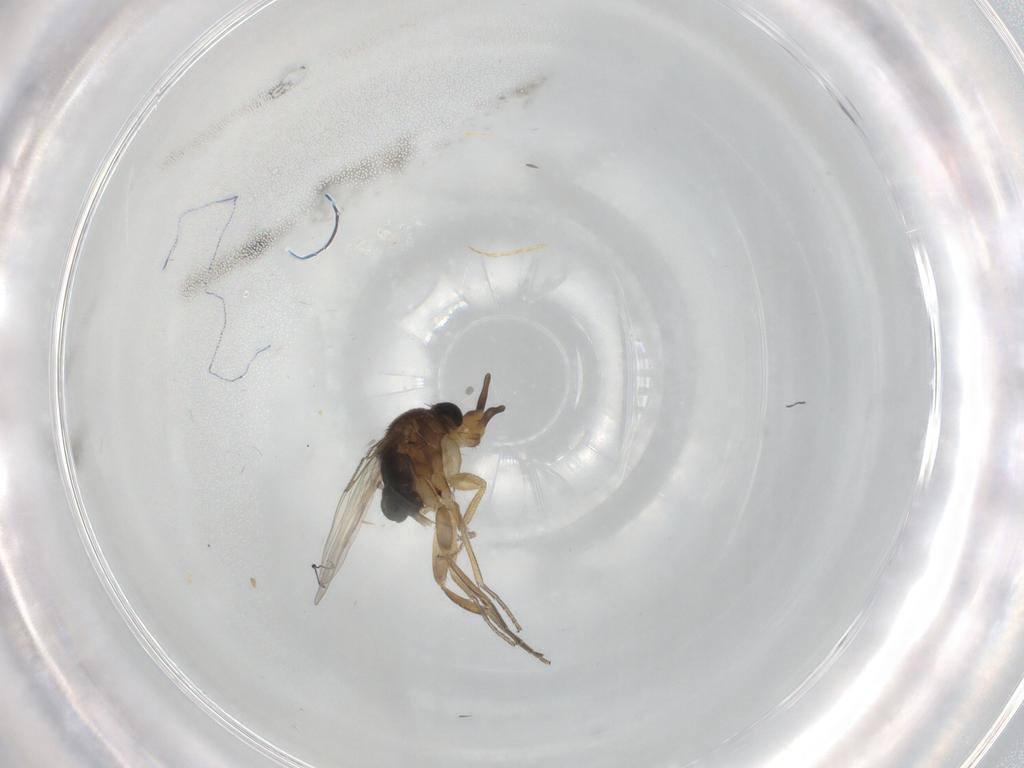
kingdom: Animalia
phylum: Arthropoda
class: Insecta
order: Diptera
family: Phoridae
